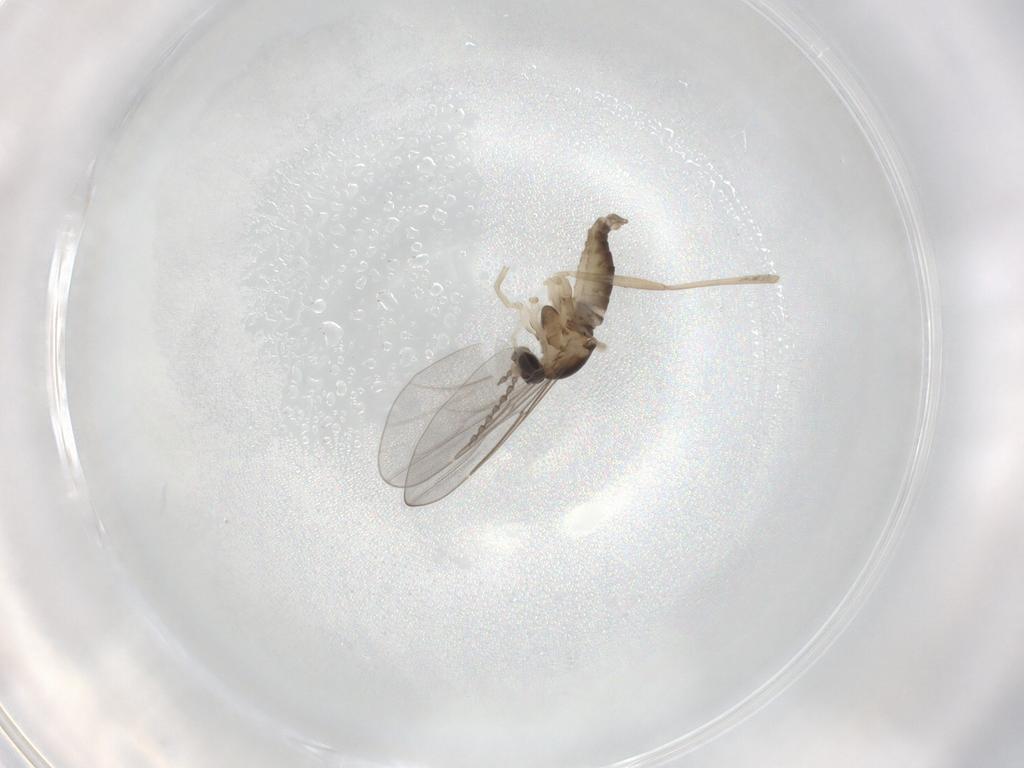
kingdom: Animalia
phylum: Arthropoda
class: Insecta
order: Diptera
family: Cecidomyiidae
